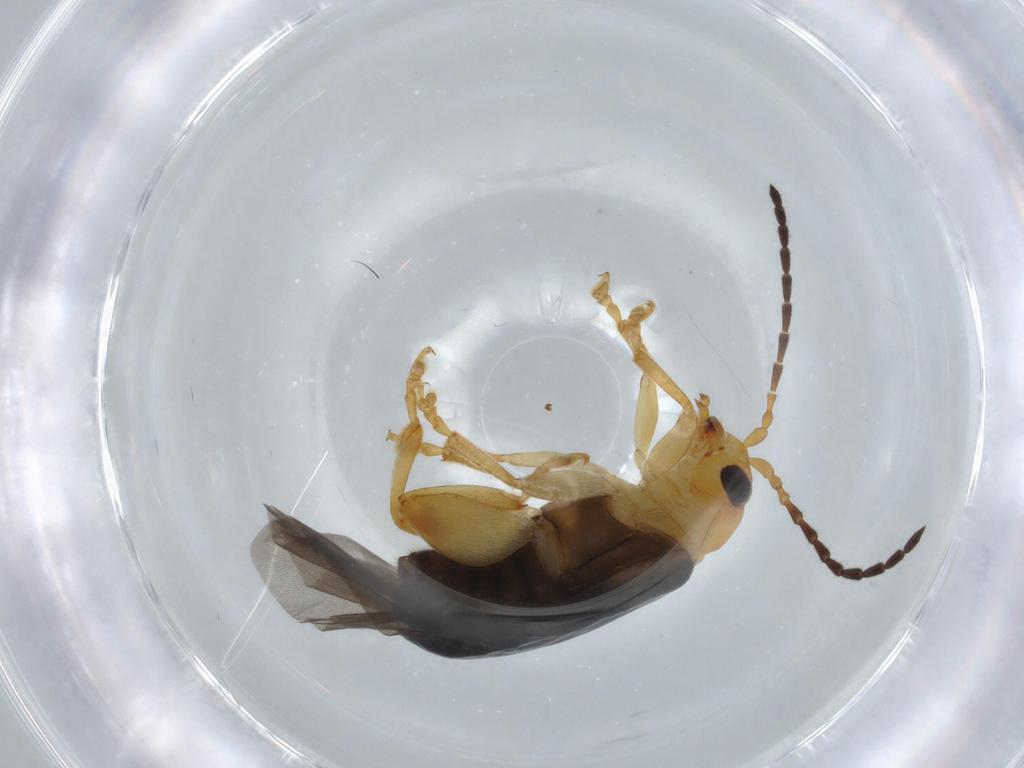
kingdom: Animalia
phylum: Arthropoda
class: Insecta
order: Coleoptera
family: Chrysomelidae
